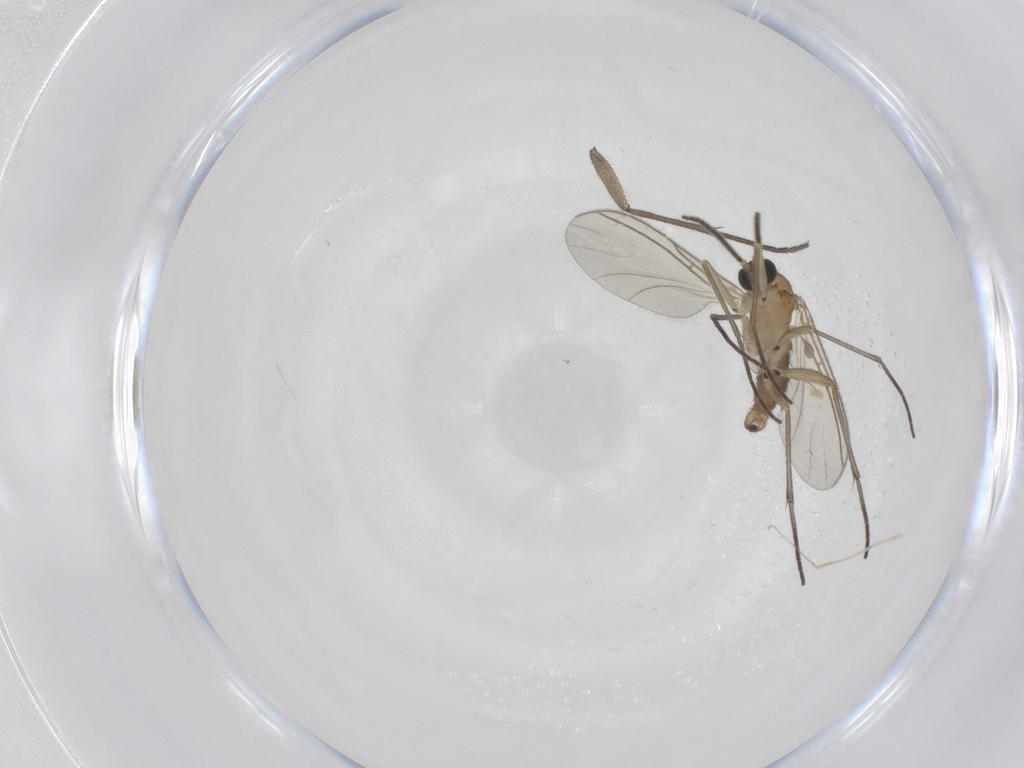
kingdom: Animalia
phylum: Arthropoda
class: Insecta
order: Diptera
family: Sciaridae
